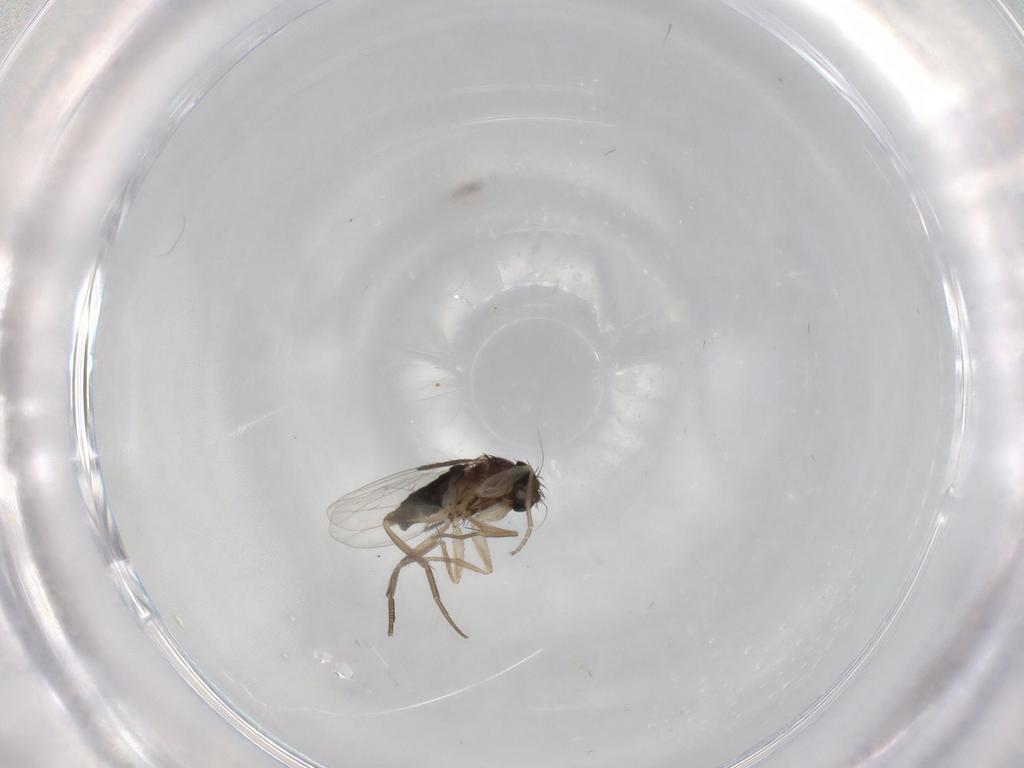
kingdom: Animalia
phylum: Arthropoda
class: Insecta
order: Diptera
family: Phoridae
